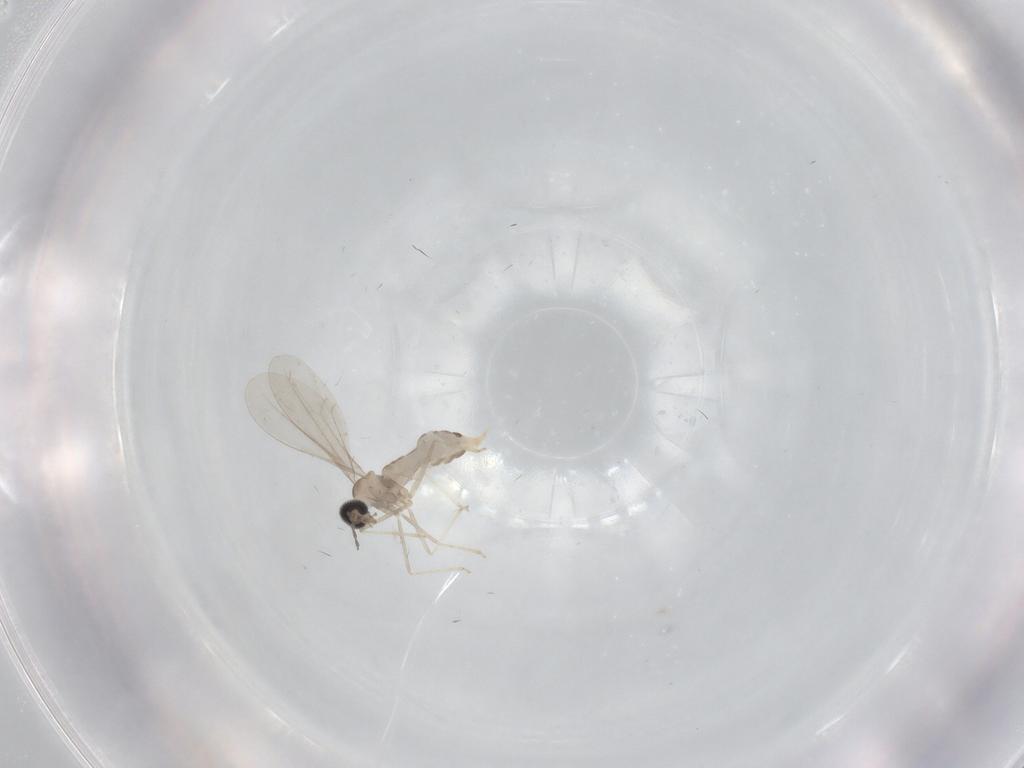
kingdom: Animalia
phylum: Arthropoda
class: Insecta
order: Diptera
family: Cecidomyiidae
